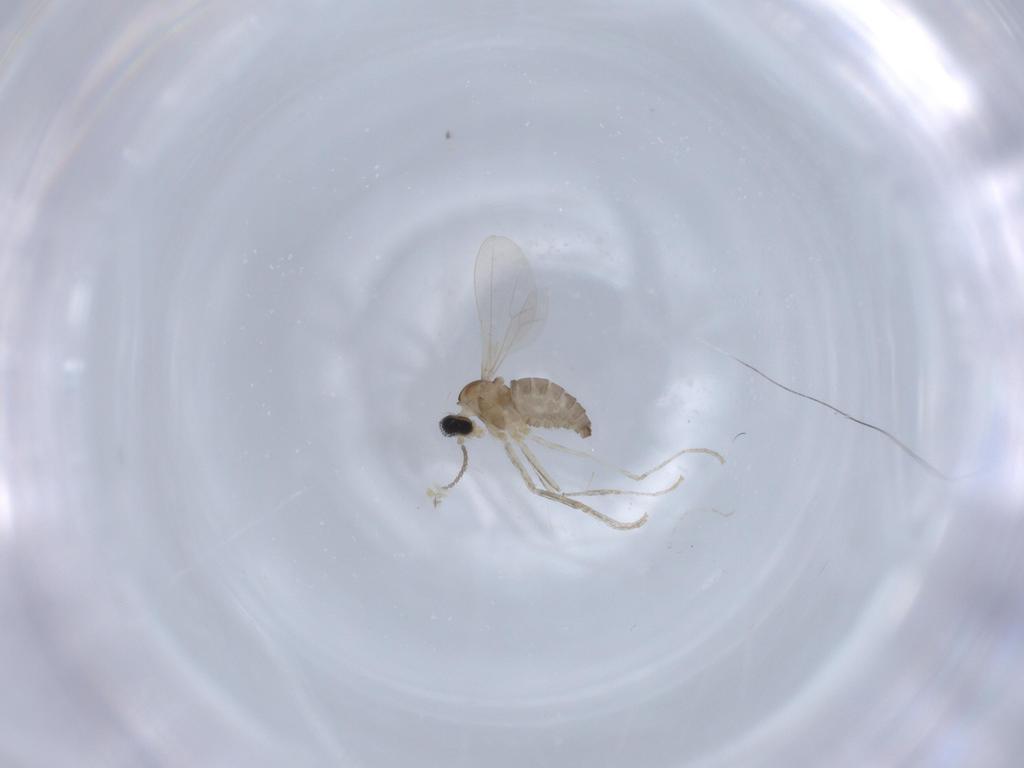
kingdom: Animalia
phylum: Arthropoda
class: Insecta
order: Diptera
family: Cecidomyiidae
